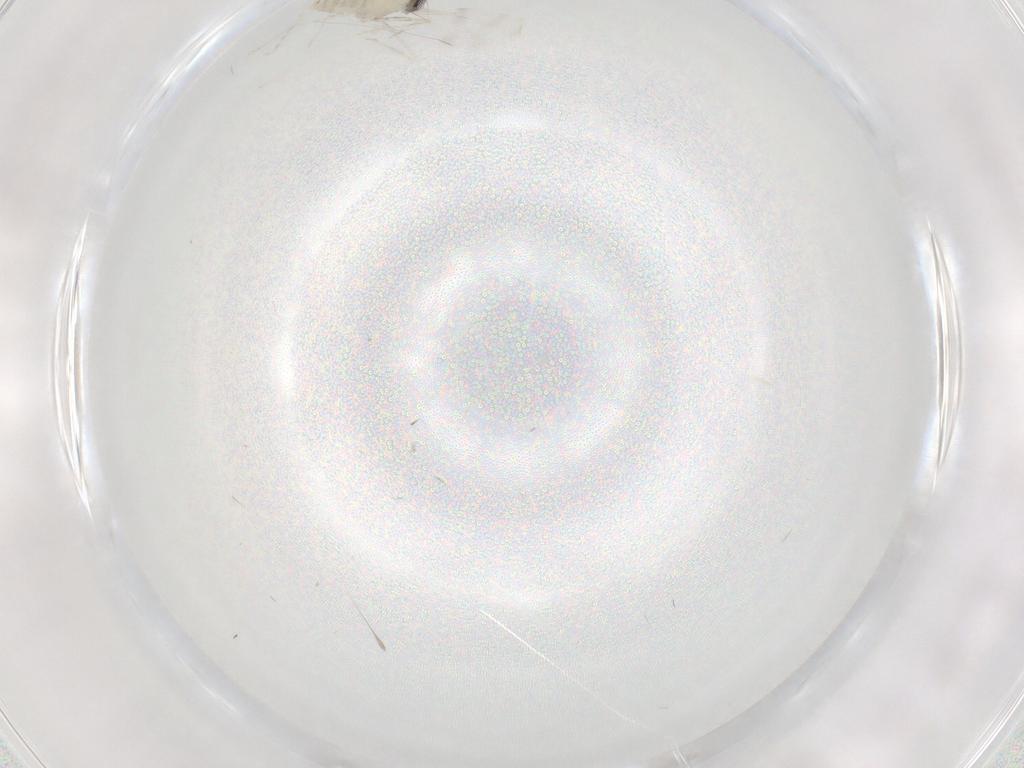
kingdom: Animalia
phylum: Arthropoda
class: Insecta
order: Diptera
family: Cecidomyiidae
